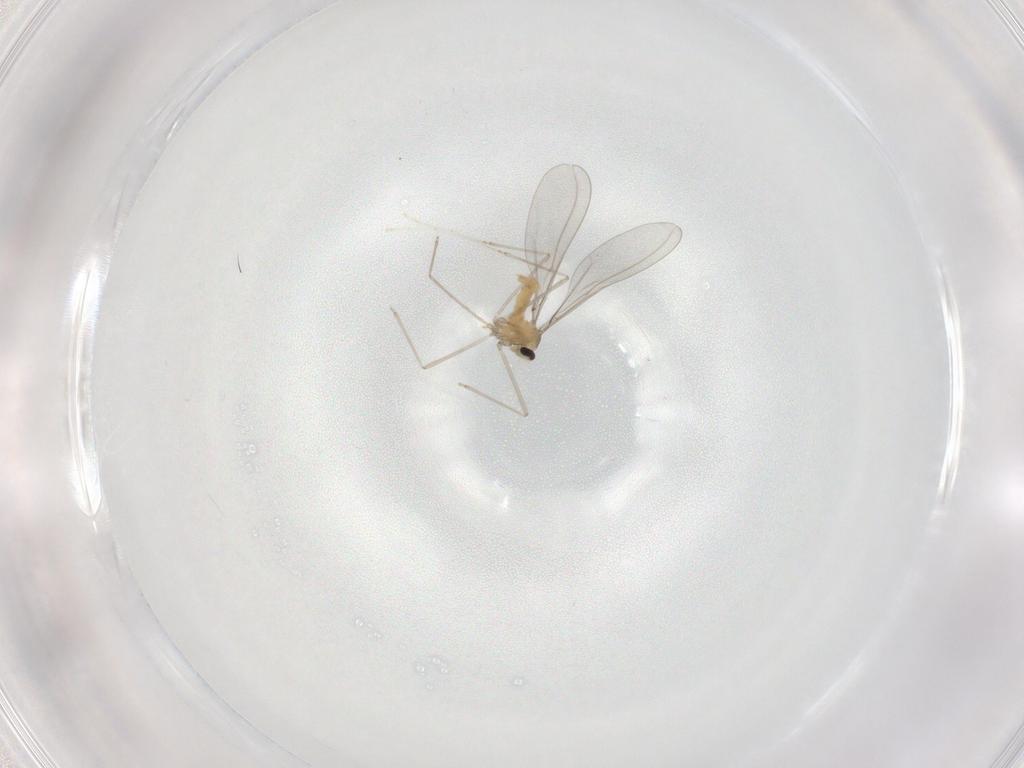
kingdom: Animalia
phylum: Arthropoda
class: Insecta
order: Diptera
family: Cecidomyiidae
